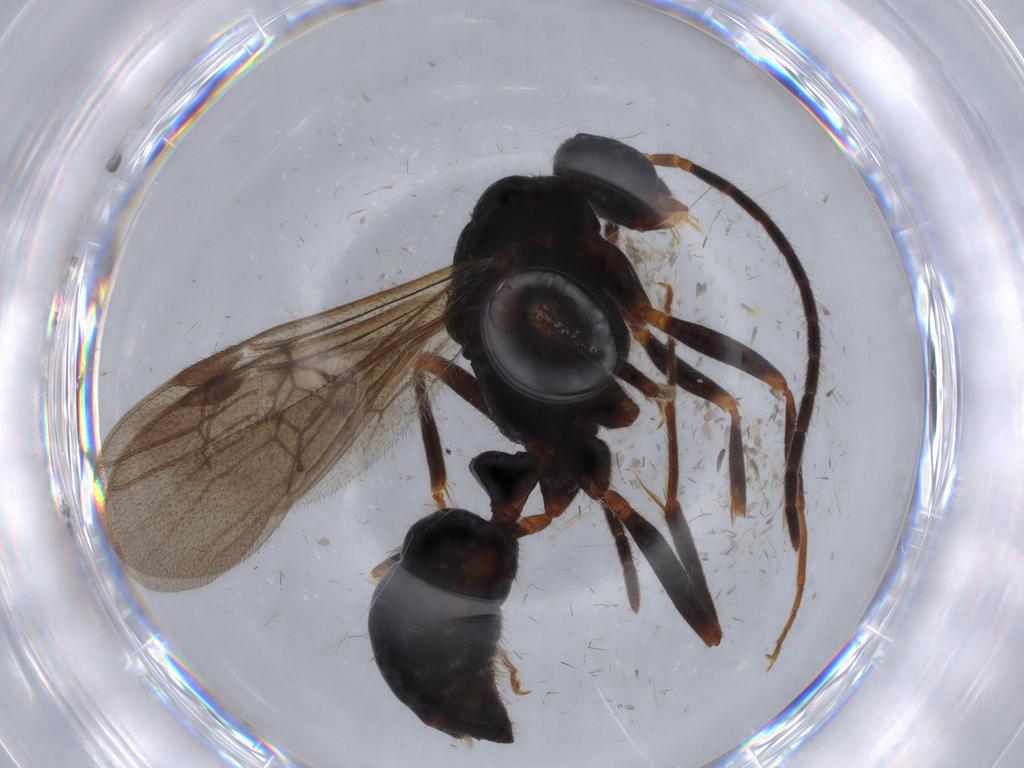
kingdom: Animalia
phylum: Arthropoda
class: Insecta
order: Hymenoptera
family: Formicidae
